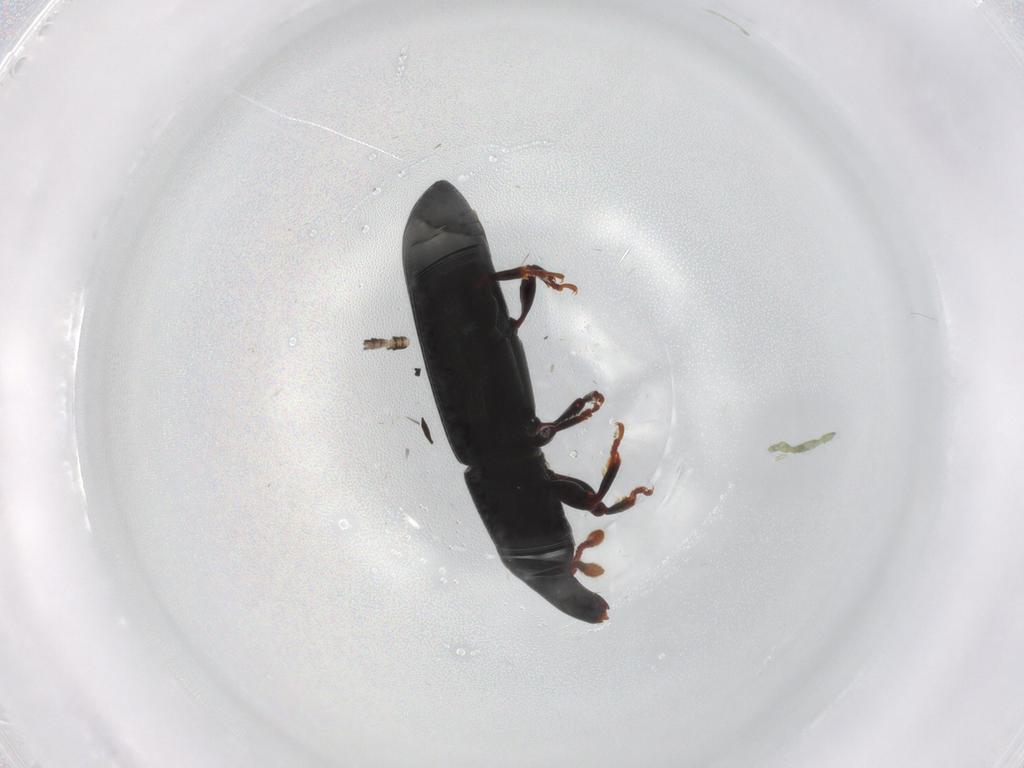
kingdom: Animalia
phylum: Arthropoda
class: Insecta
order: Coleoptera
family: Curculionidae
